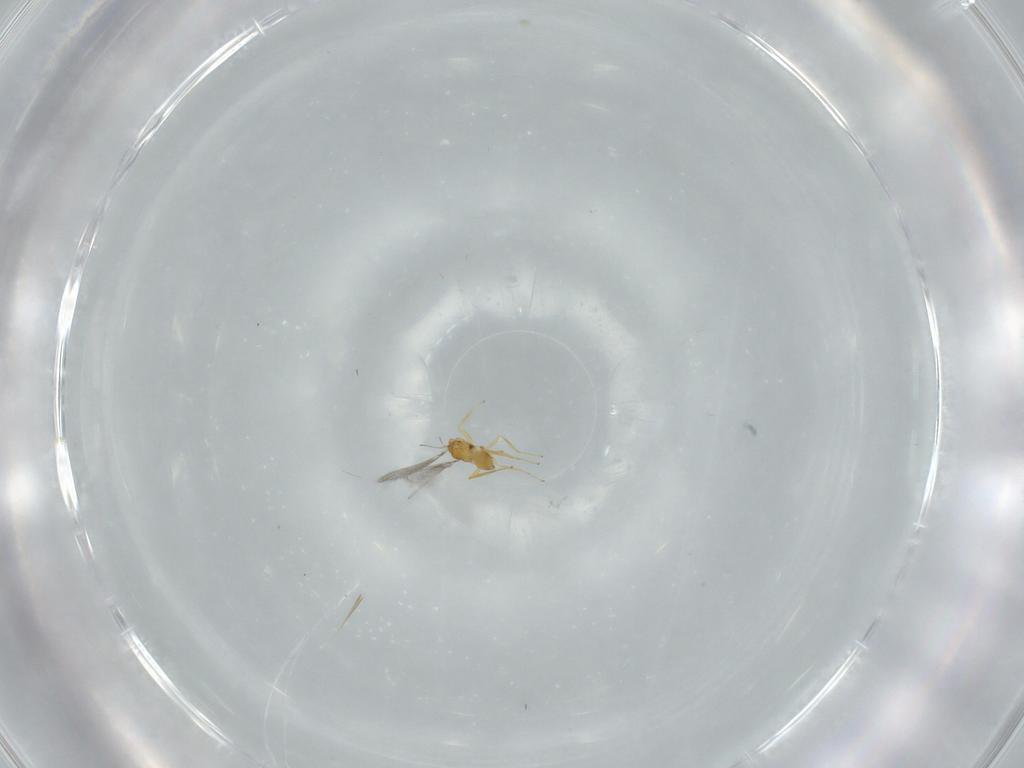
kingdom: Animalia
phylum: Arthropoda
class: Insecta
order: Hymenoptera
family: Mymaridae
